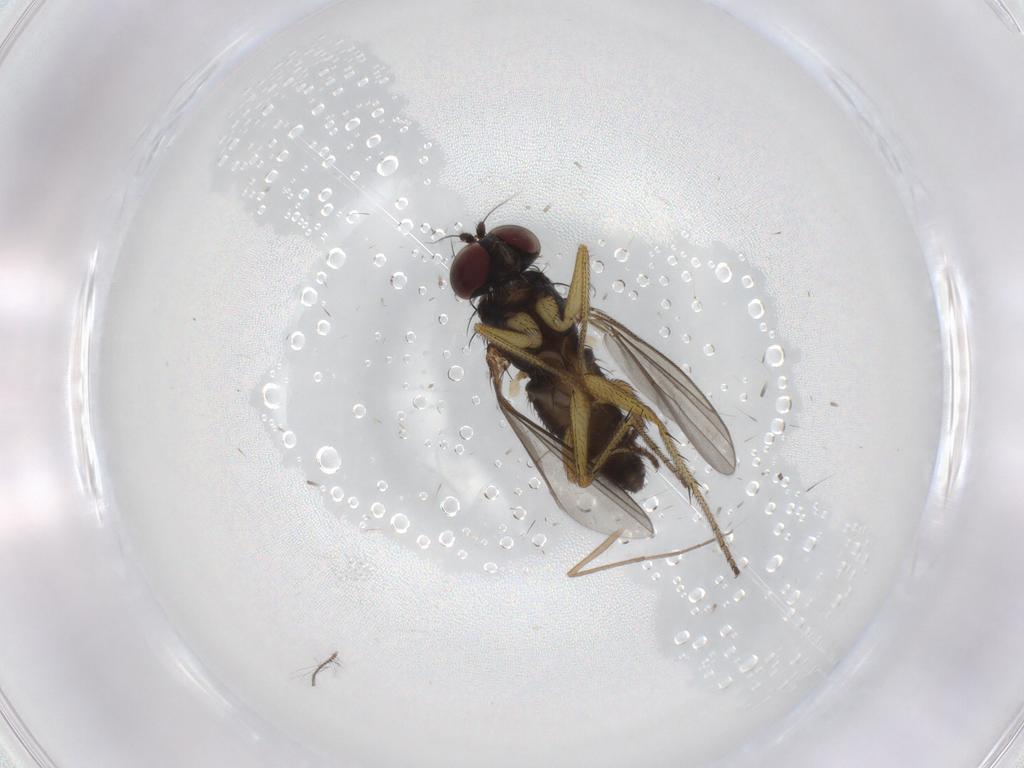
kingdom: Animalia
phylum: Arthropoda
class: Insecta
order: Diptera
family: Chironomidae
